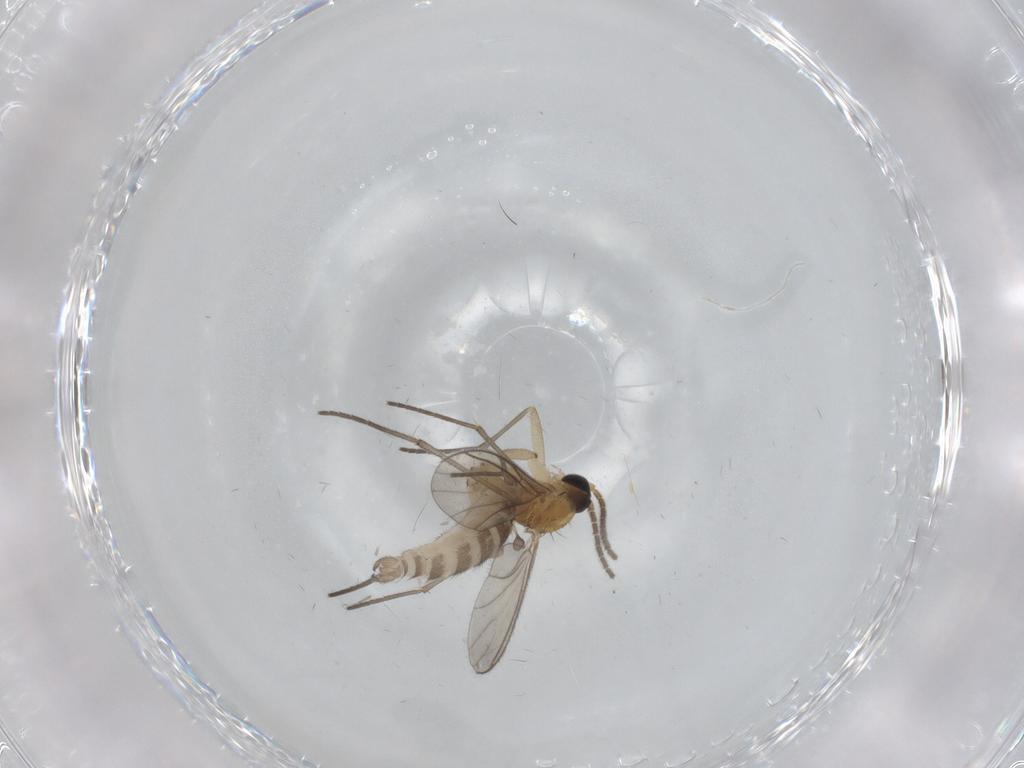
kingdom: Animalia
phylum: Arthropoda
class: Insecta
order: Diptera
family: Sciaridae
